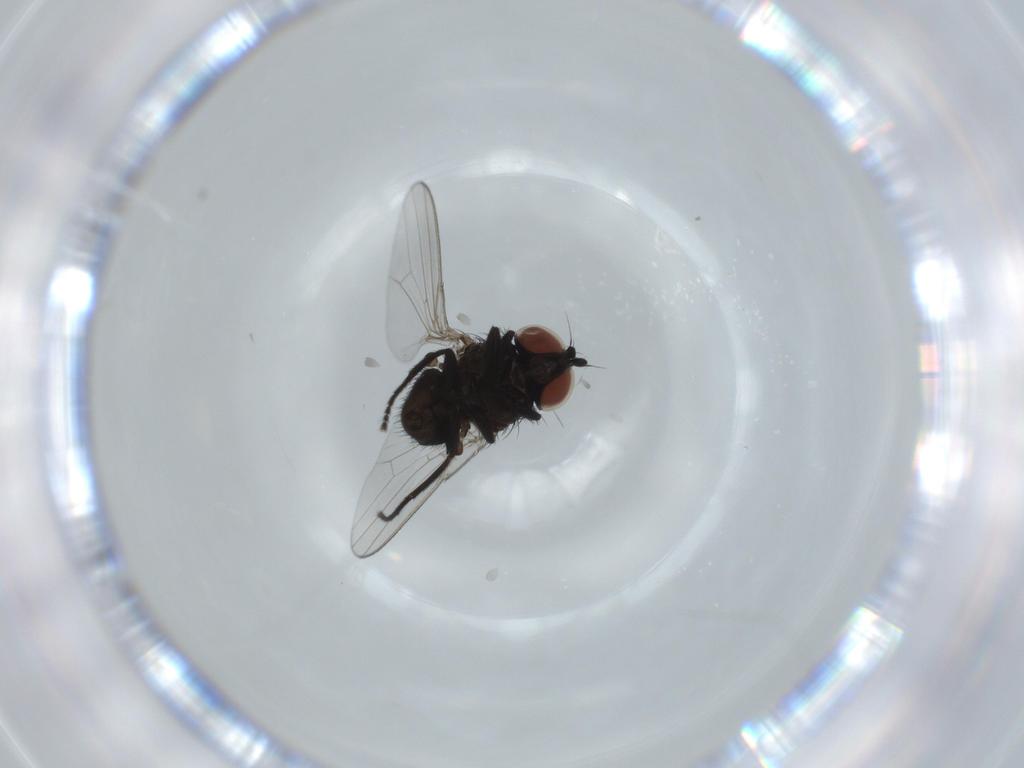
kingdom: Animalia
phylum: Arthropoda
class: Insecta
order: Diptera
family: Milichiidae
